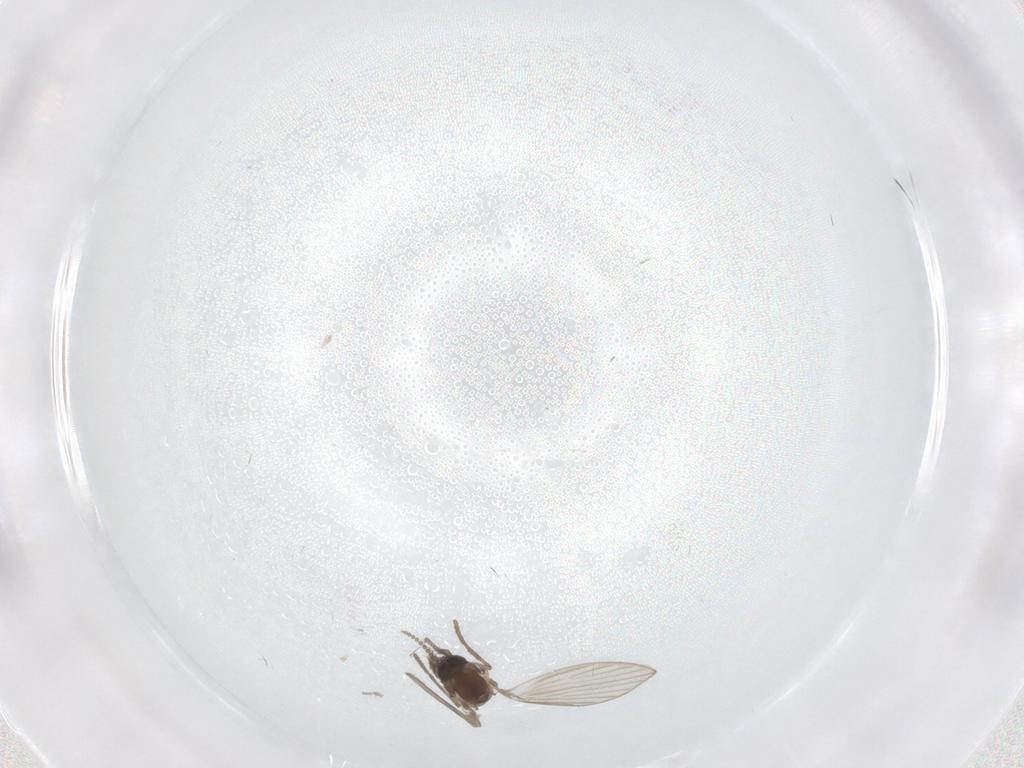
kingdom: Animalia
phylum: Arthropoda
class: Insecta
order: Diptera
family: Psychodidae
